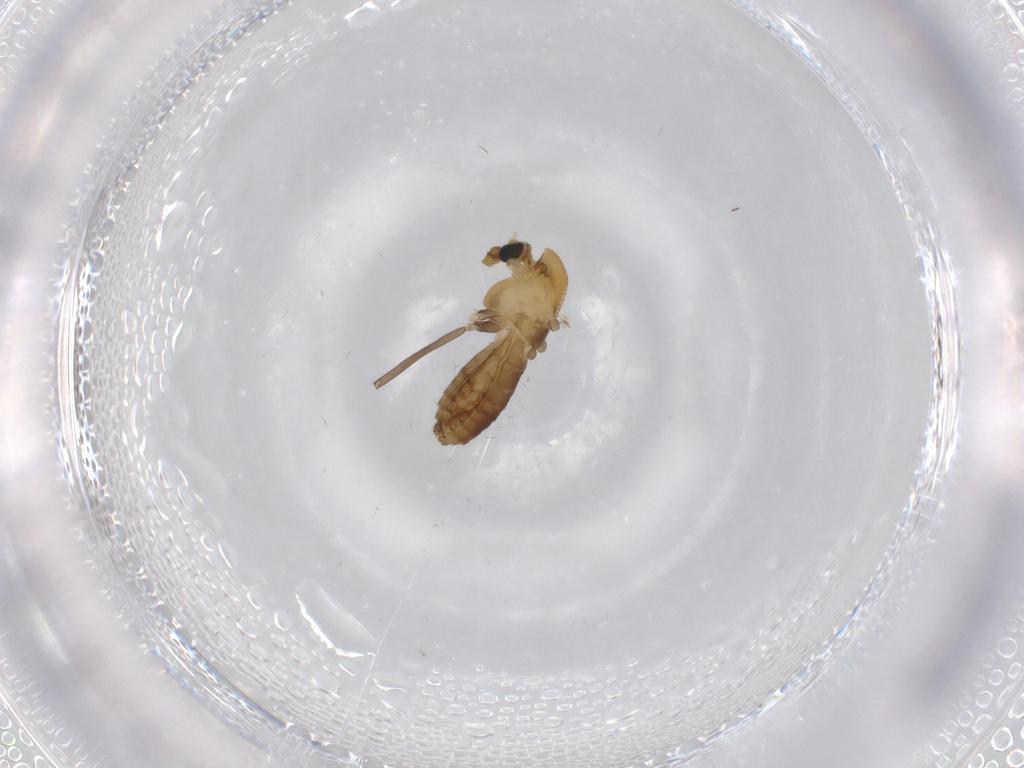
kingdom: Animalia
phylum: Arthropoda
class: Insecta
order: Diptera
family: Chironomidae
